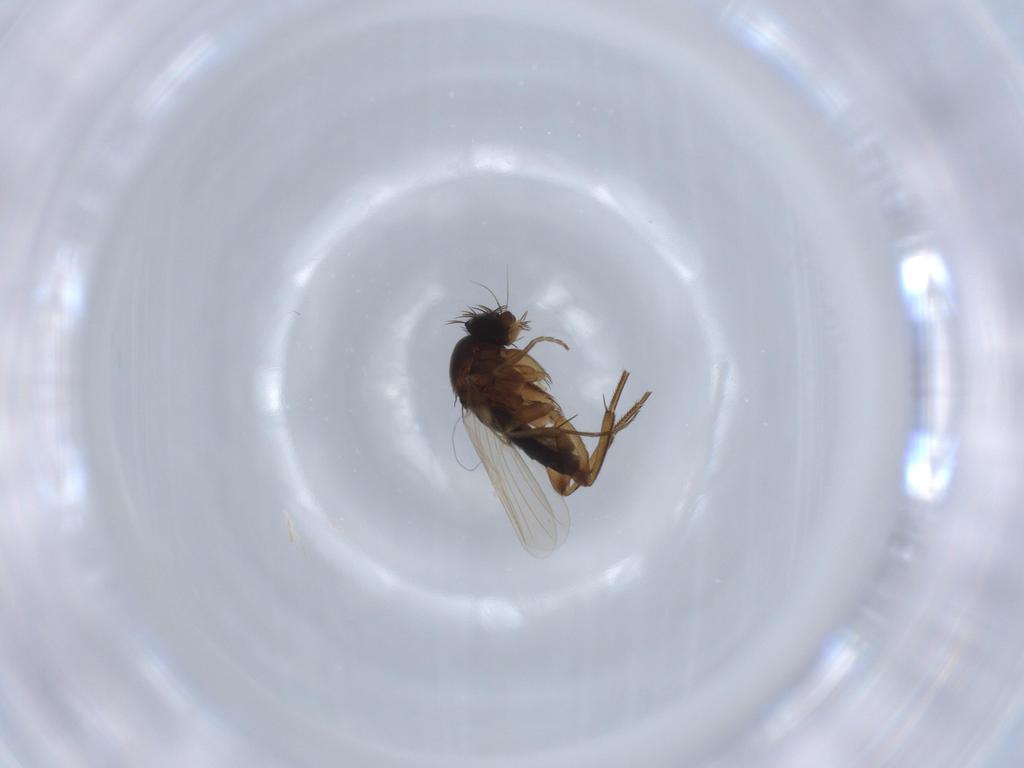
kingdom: Animalia
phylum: Arthropoda
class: Insecta
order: Diptera
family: Phoridae
